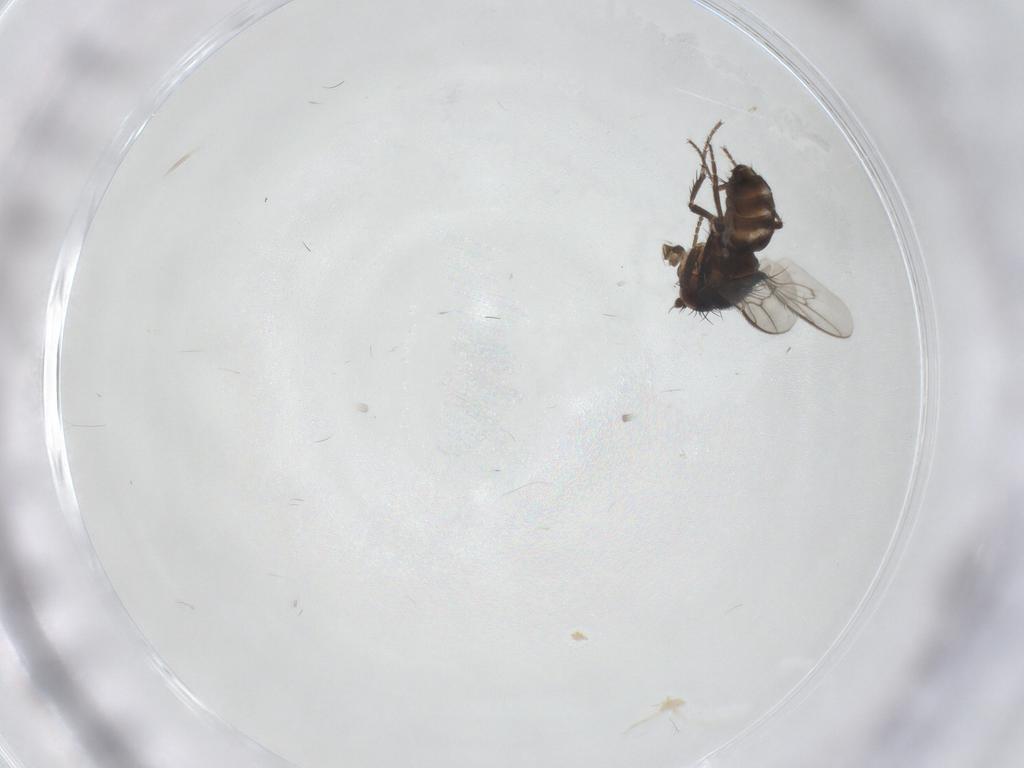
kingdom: Animalia
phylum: Arthropoda
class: Insecta
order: Diptera
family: Sphaeroceridae
